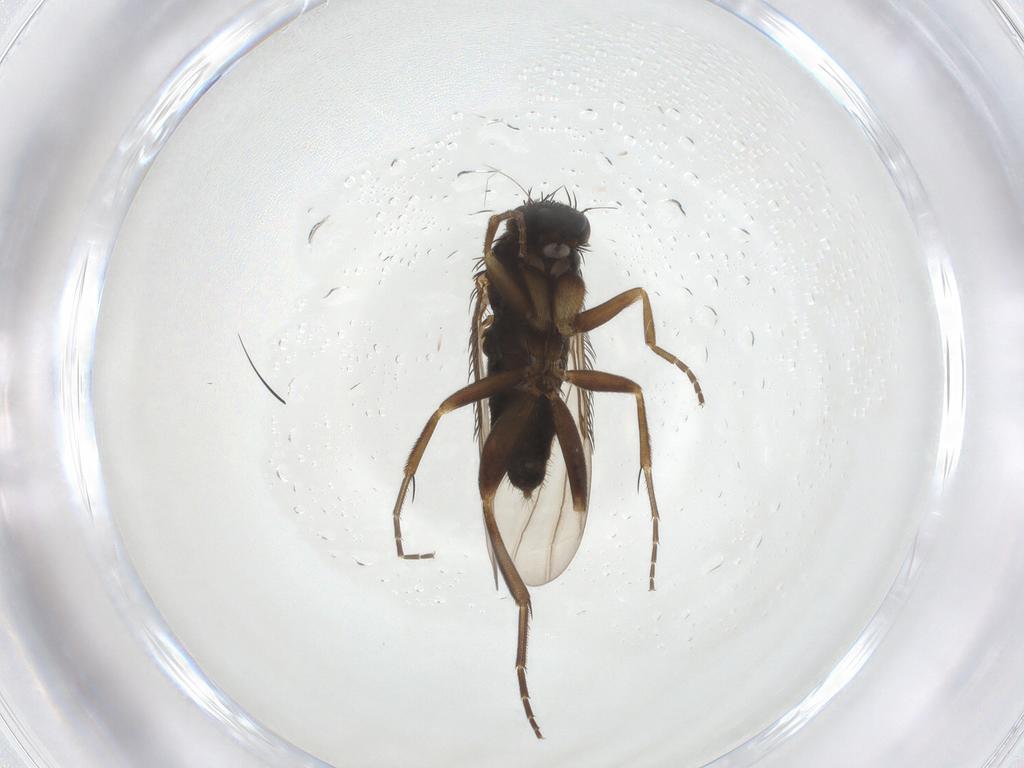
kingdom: Animalia
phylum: Arthropoda
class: Insecta
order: Diptera
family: Phoridae
